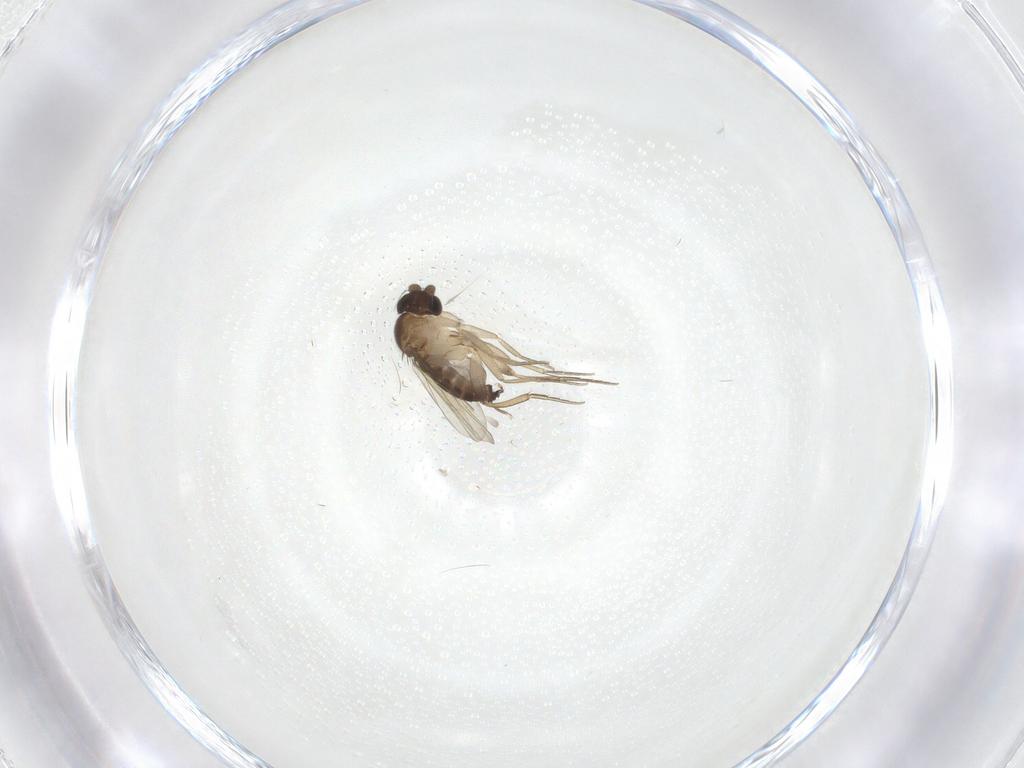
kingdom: Animalia
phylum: Arthropoda
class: Insecta
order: Diptera
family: Phoridae
